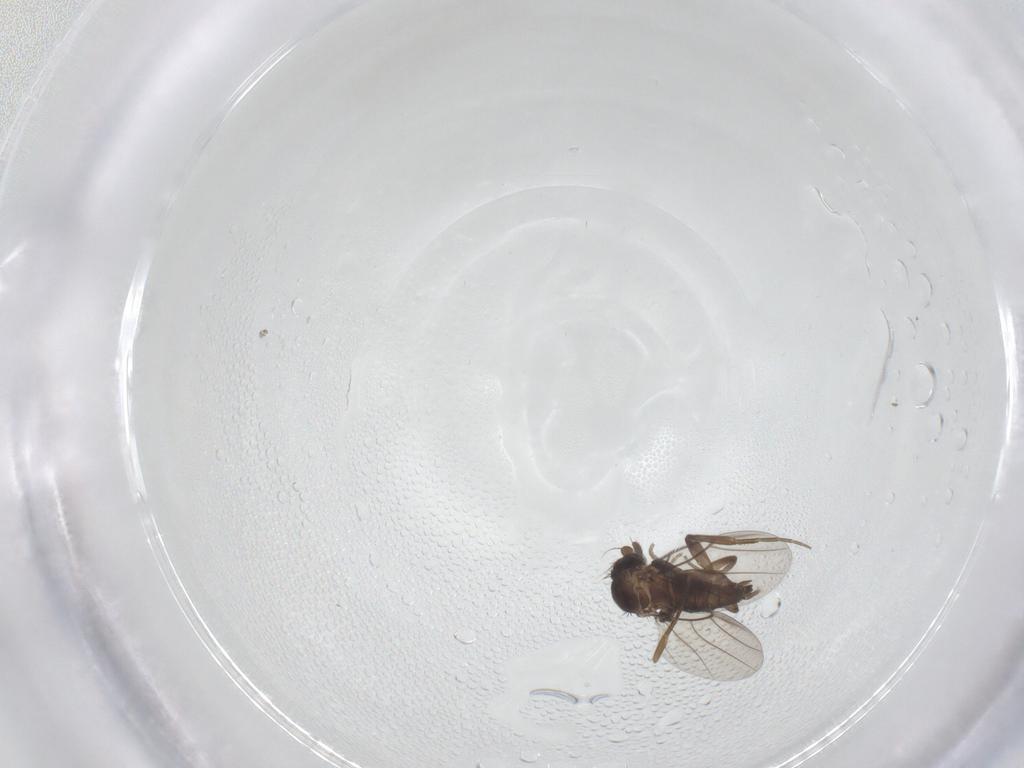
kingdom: Animalia
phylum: Arthropoda
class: Insecta
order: Diptera
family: Phoridae
